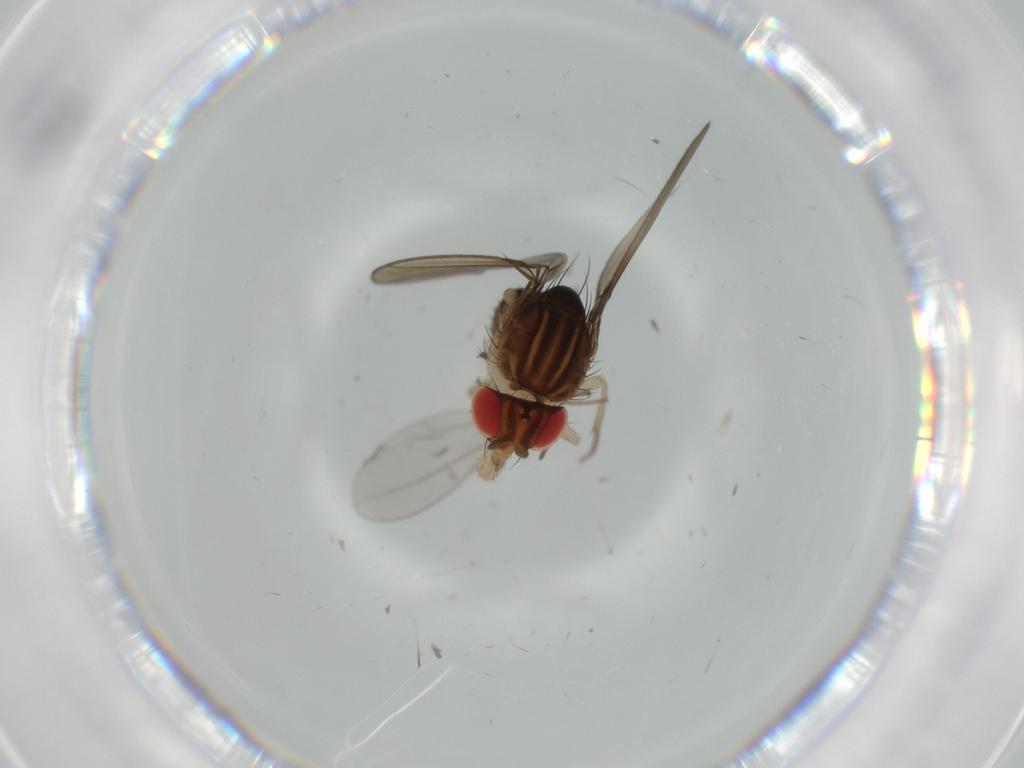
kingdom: Animalia
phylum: Arthropoda
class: Insecta
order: Diptera
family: Drosophilidae
